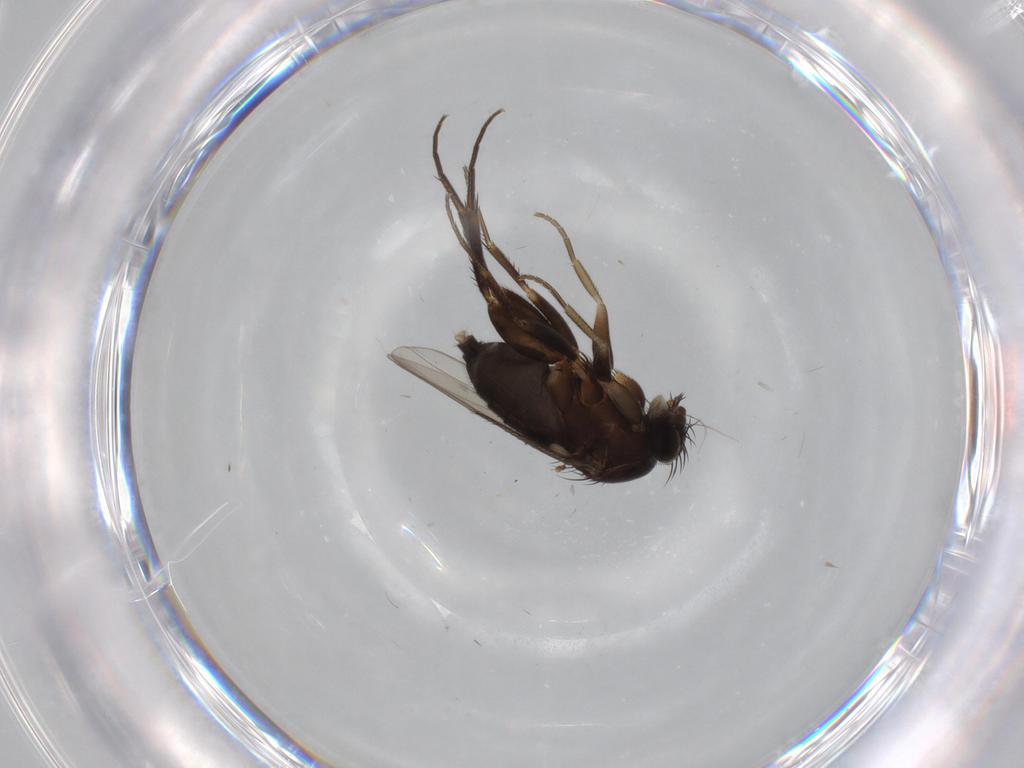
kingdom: Animalia
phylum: Arthropoda
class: Insecta
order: Diptera
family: Phoridae
